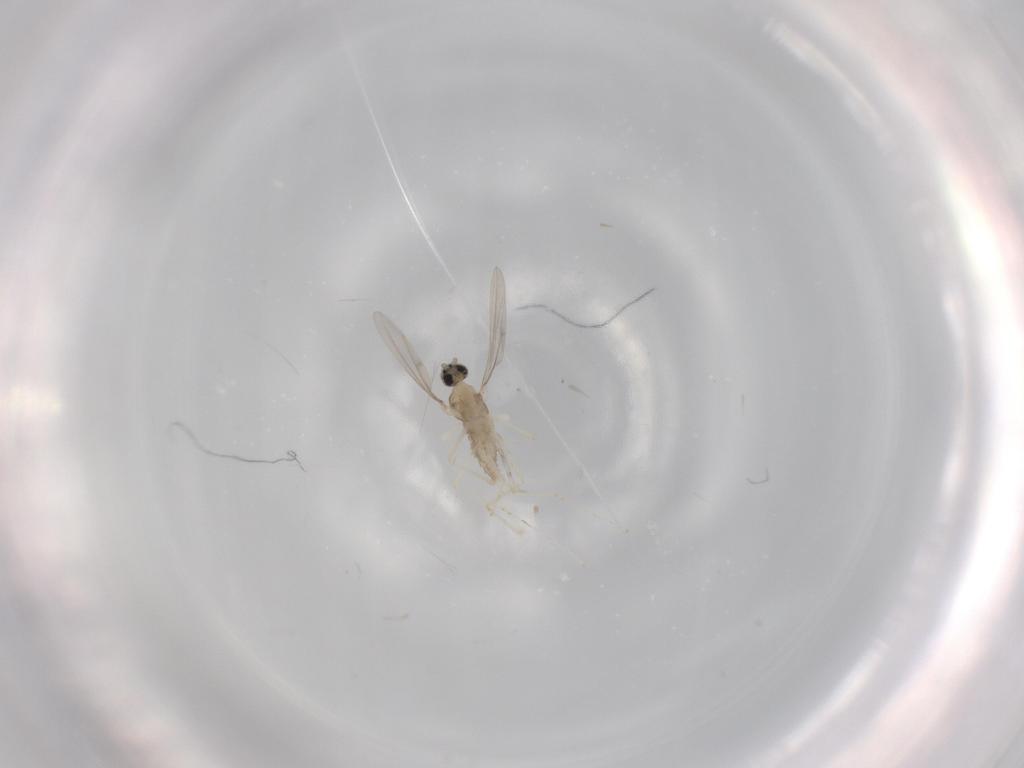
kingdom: Animalia
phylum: Arthropoda
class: Insecta
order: Diptera
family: Cecidomyiidae
